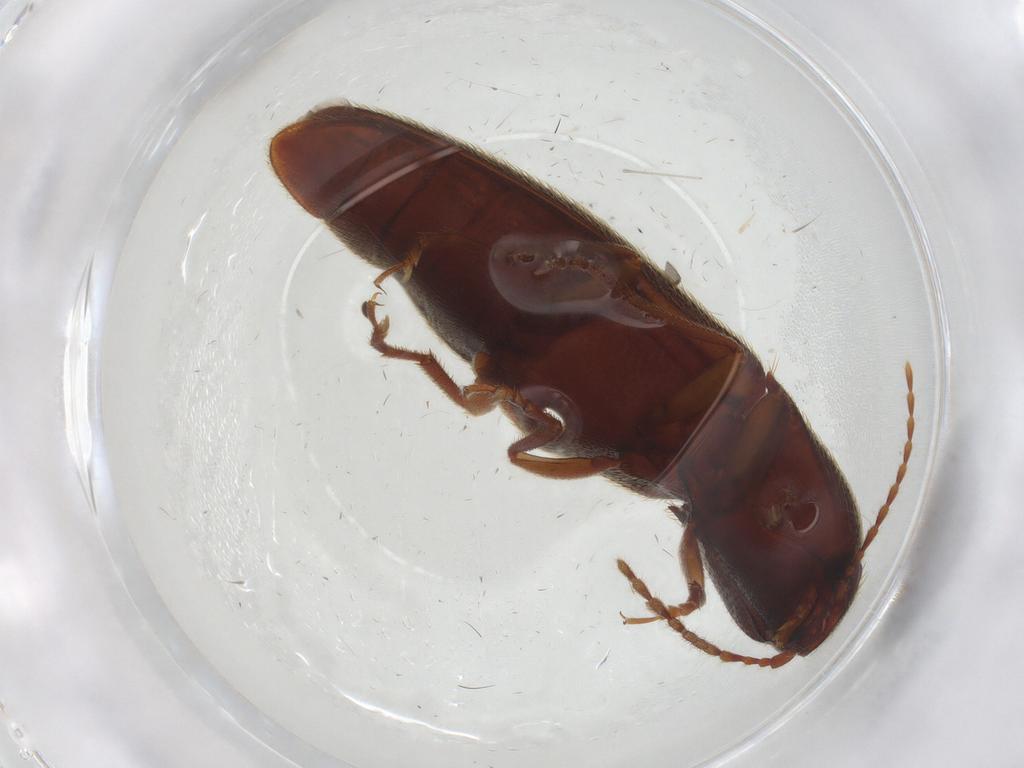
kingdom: Animalia
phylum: Arthropoda
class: Insecta
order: Coleoptera
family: Elateridae
